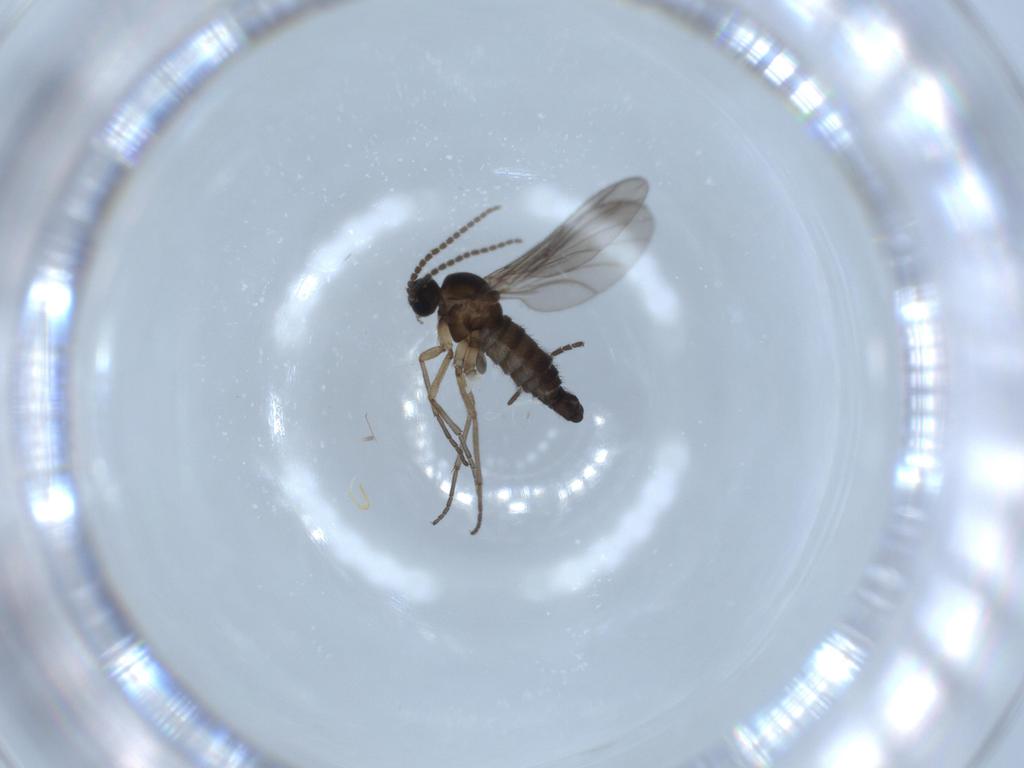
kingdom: Animalia
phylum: Arthropoda
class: Insecta
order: Diptera
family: Sciaridae
